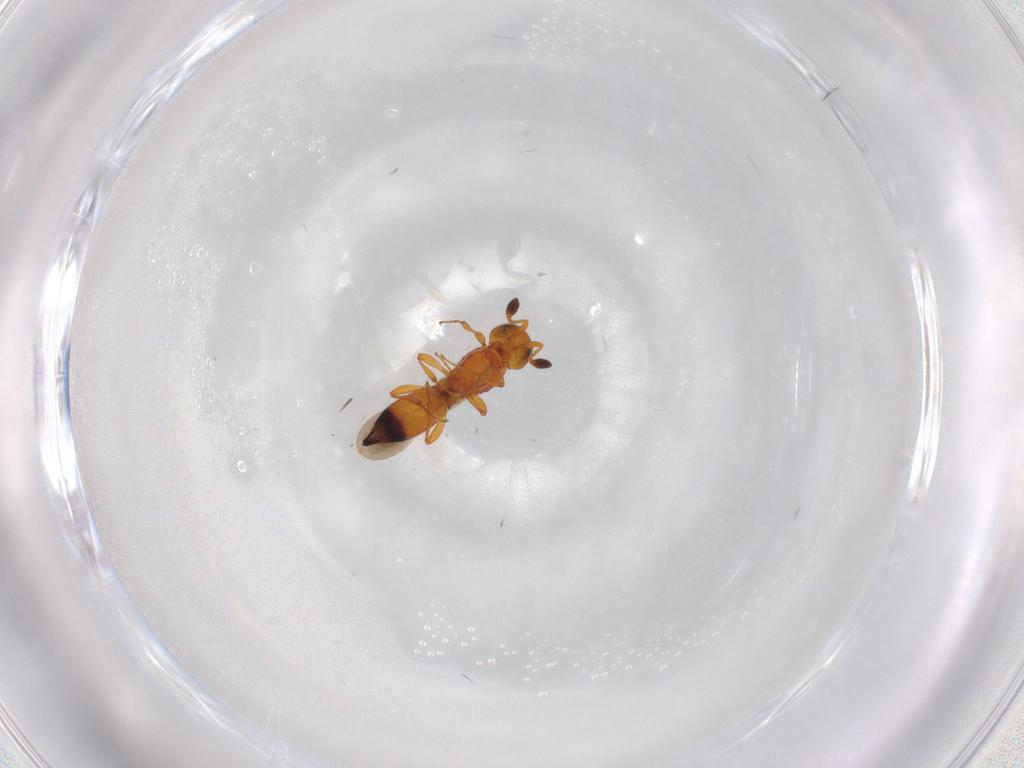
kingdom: Animalia
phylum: Arthropoda
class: Insecta
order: Hymenoptera
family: Platygastridae
